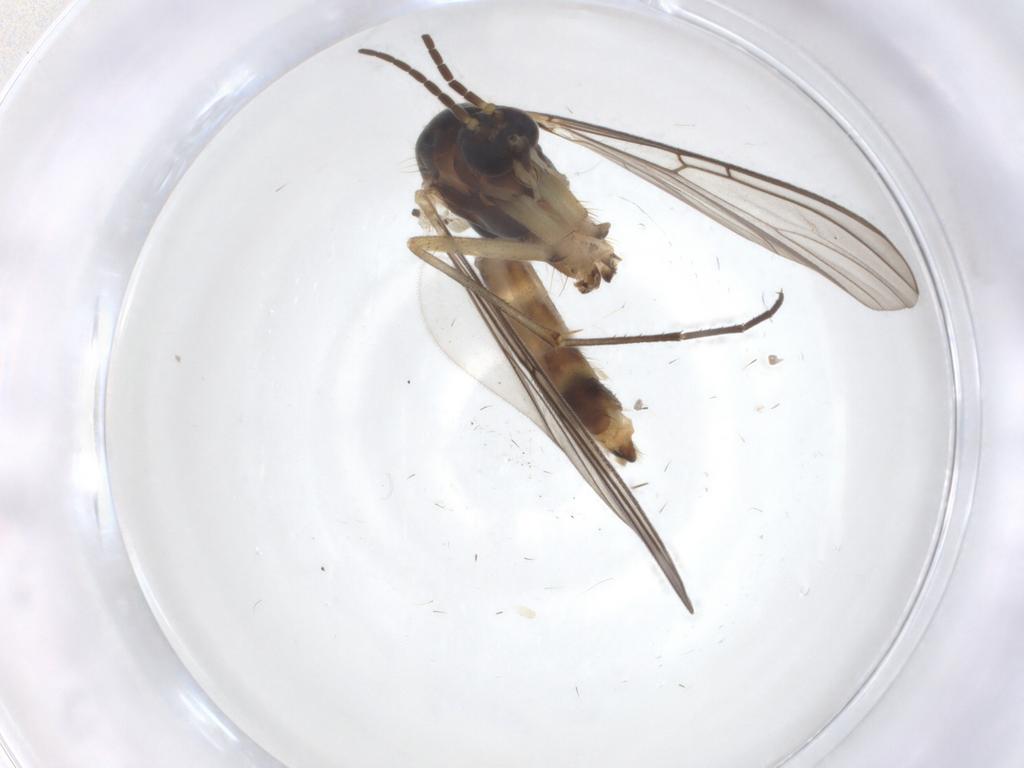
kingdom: Animalia
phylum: Arthropoda
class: Insecta
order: Diptera
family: Mycetophilidae
